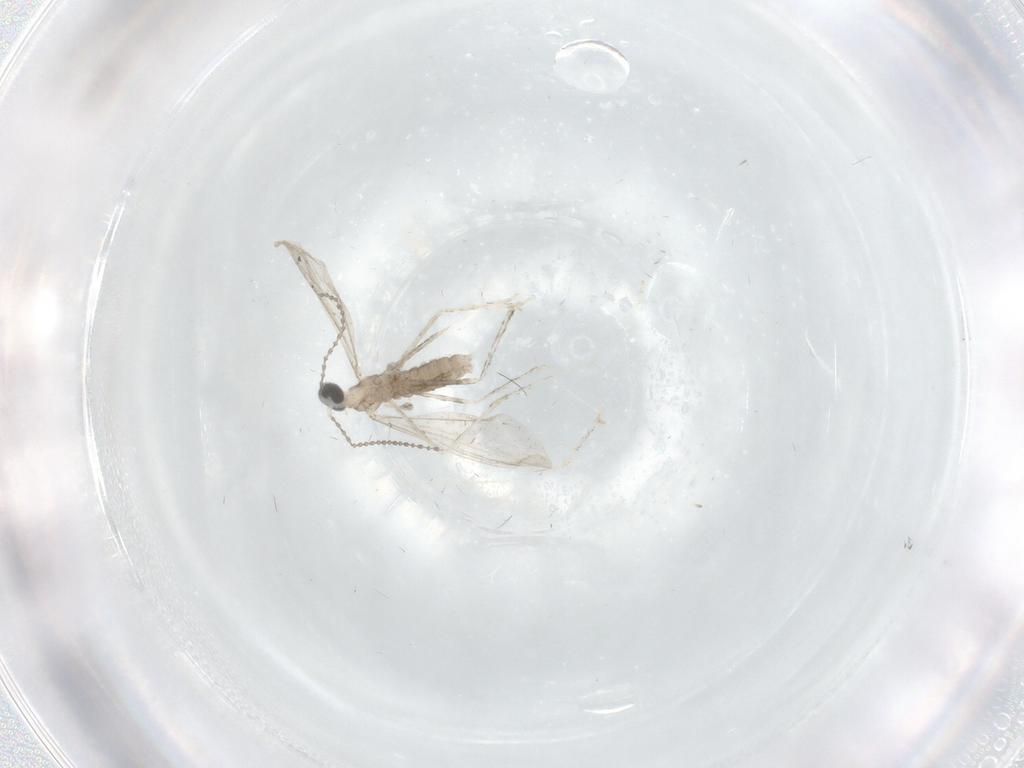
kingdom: Animalia
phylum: Arthropoda
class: Insecta
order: Diptera
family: Cecidomyiidae
